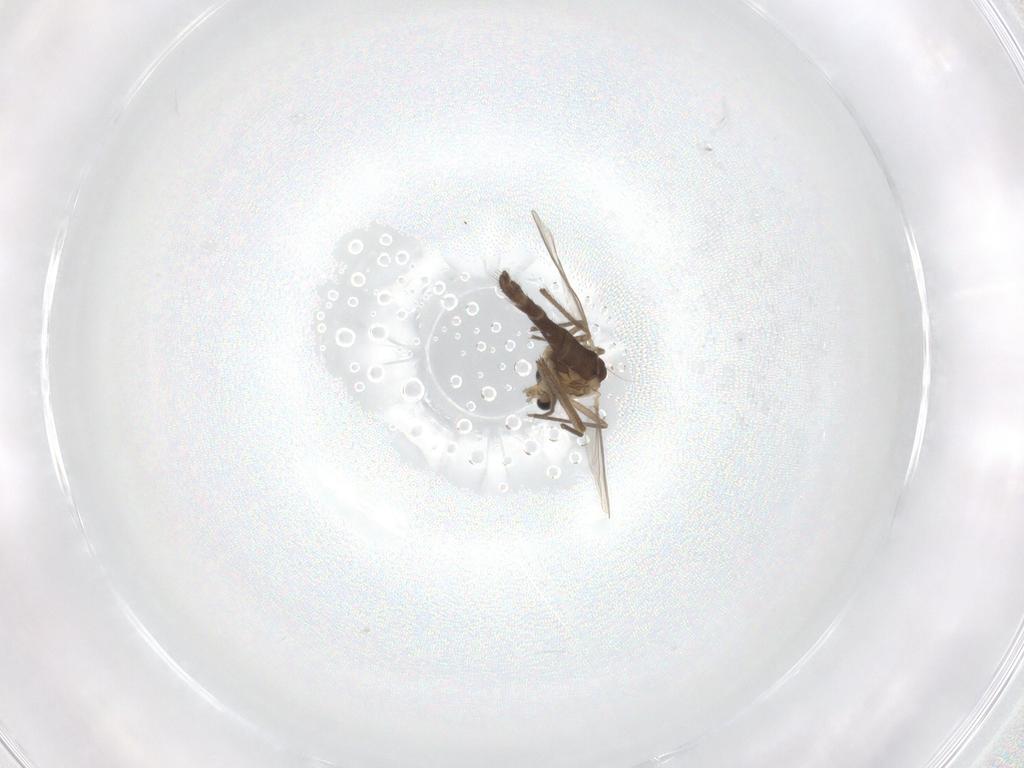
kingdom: Animalia
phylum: Arthropoda
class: Insecta
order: Diptera
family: Chironomidae
